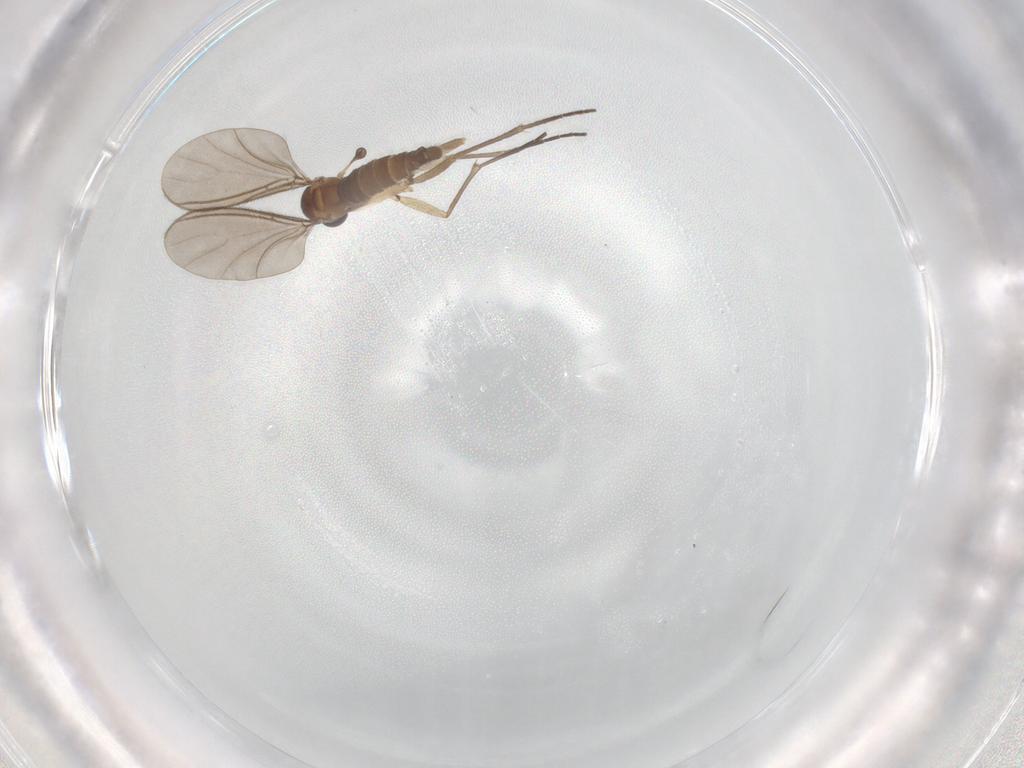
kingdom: Animalia
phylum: Arthropoda
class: Insecta
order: Diptera
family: Sciaridae
